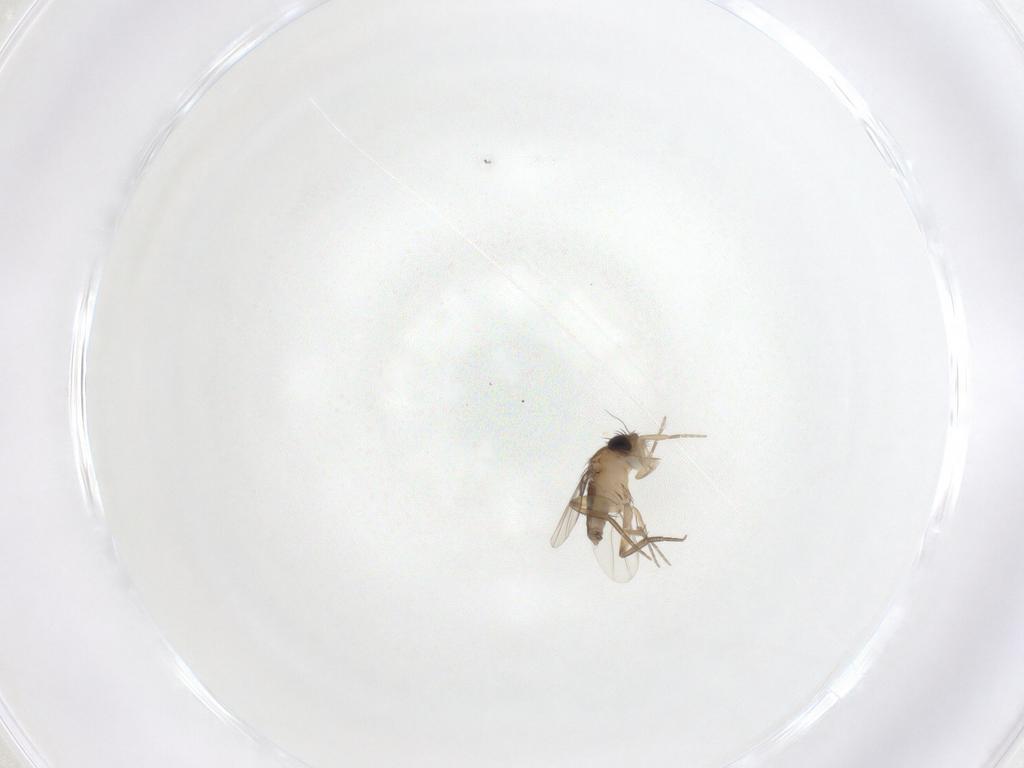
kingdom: Animalia
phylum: Arthropoda
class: Insecta
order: Diptera
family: Phoridae
